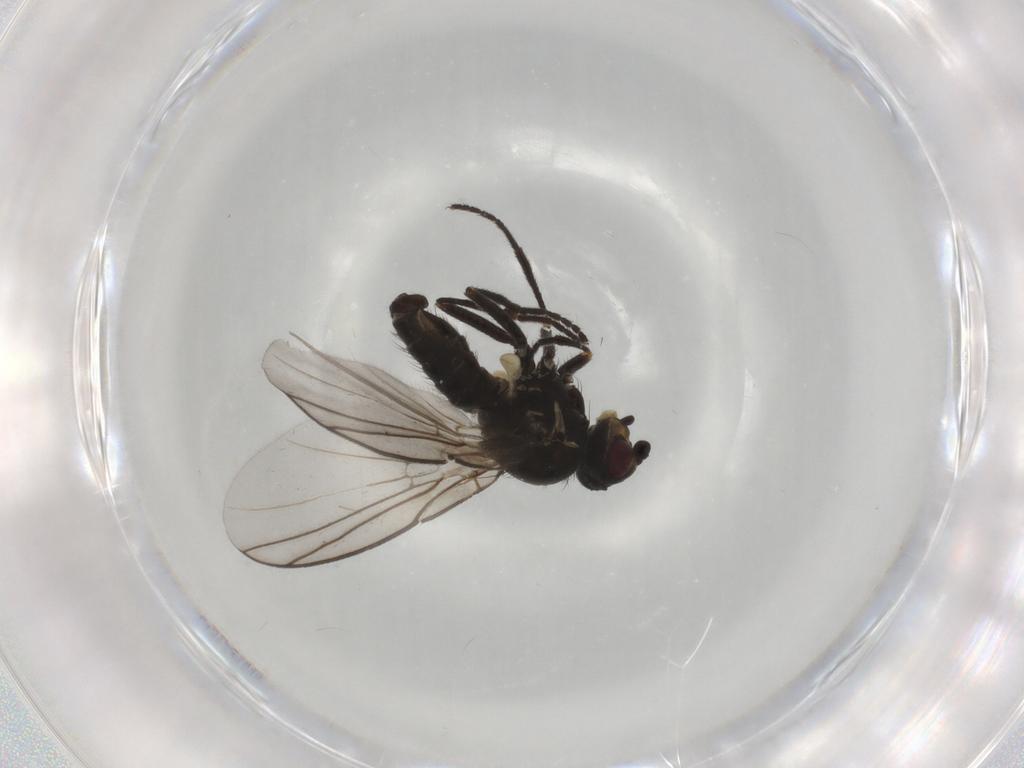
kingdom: Animalia
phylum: Arthropoda
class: Insecta
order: Diptera
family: Agromyzidae
